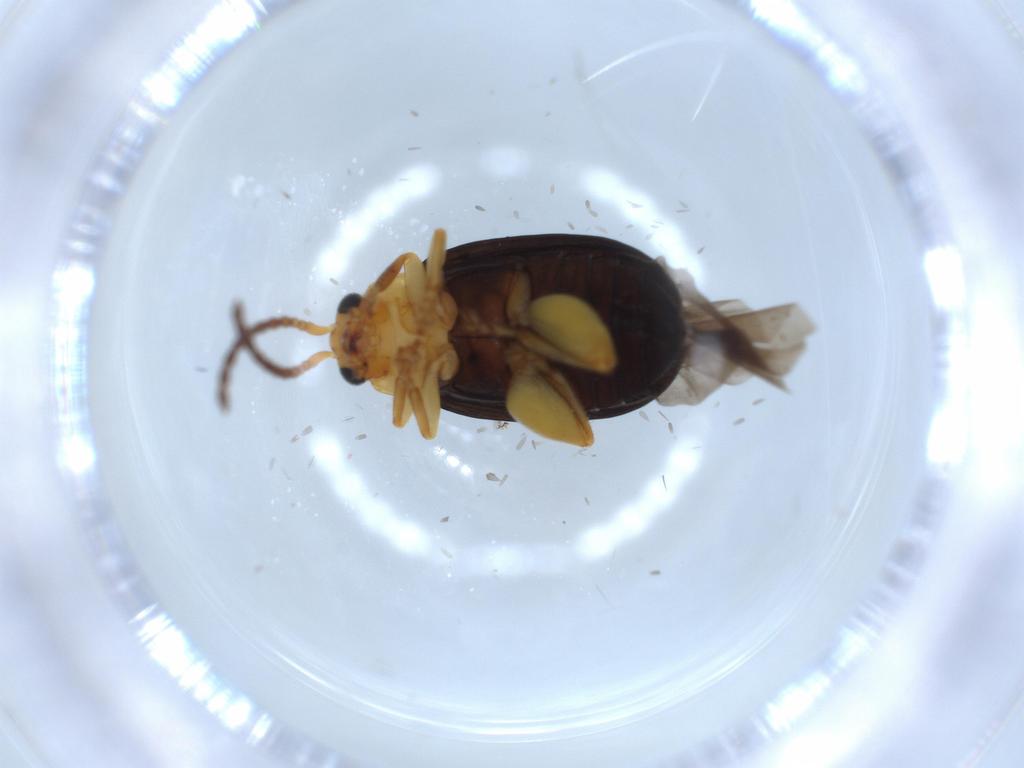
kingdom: Animalia
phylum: Arthropoda
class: Insecta
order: Coleoptera
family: Chrysomelidae
